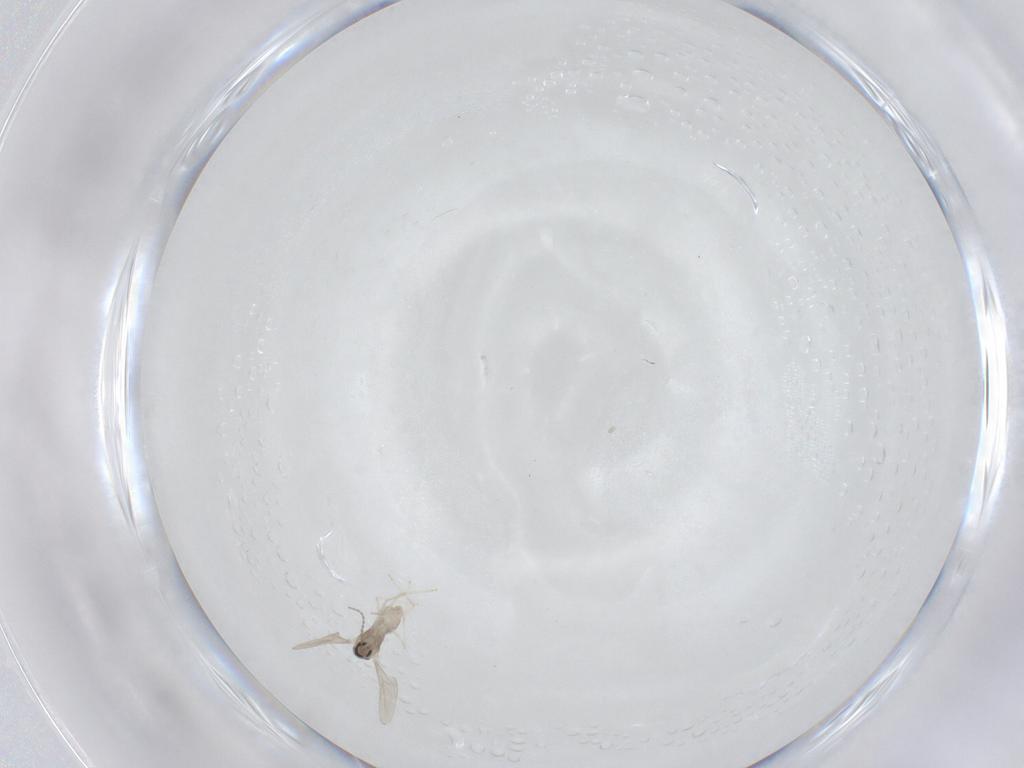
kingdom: Animalia
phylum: Arthropoda
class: Insecta
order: Diptera
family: Cecidomyiidae
